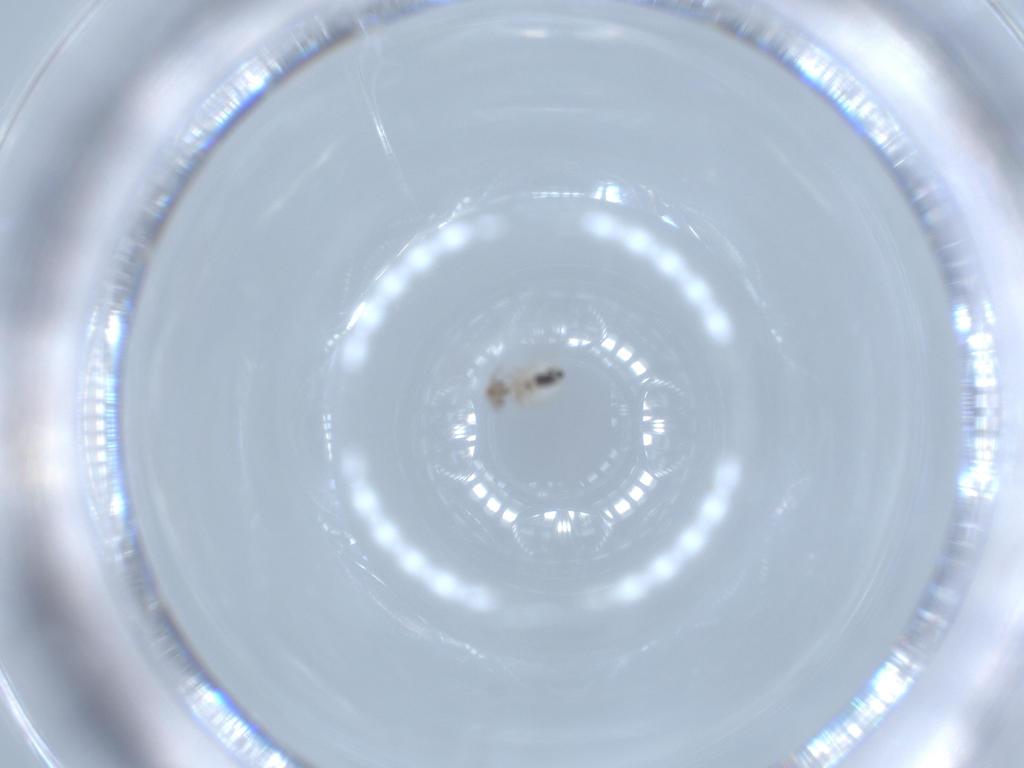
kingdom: Animalia
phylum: Arthropoda
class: Insecta
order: Psocodea
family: Lepidopsocidae
